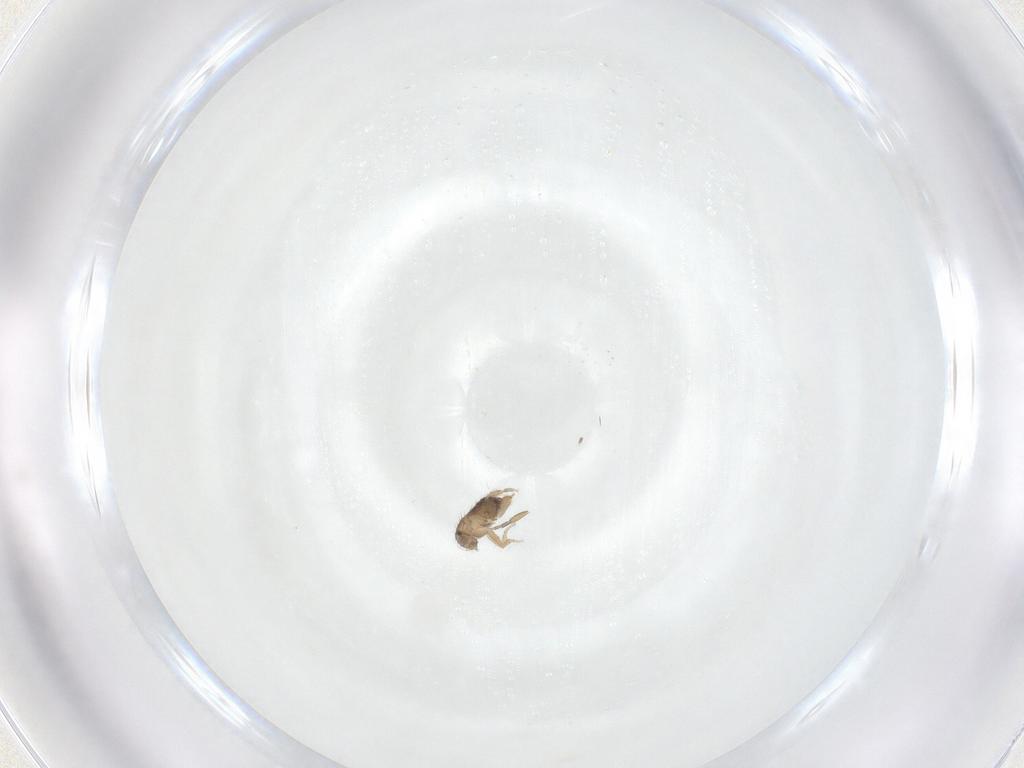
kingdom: Animalia
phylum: Arthropoda
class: Insecta
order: Diptera
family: Phoridae
